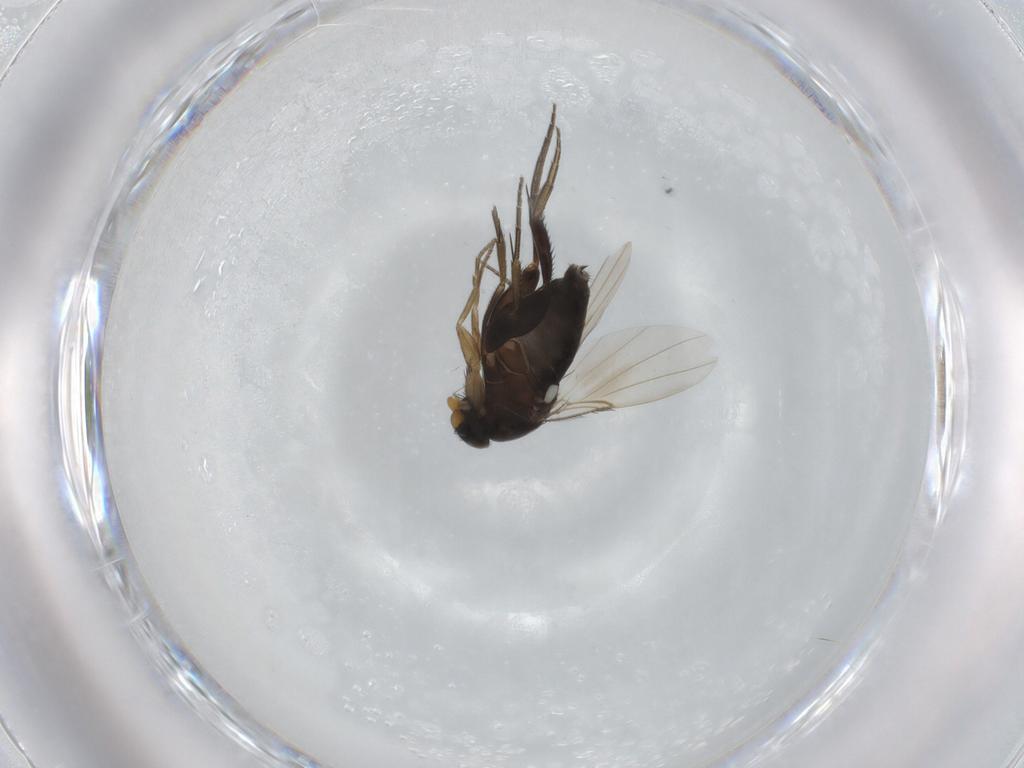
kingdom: Animalia
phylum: Arthropoda
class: Insecta
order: Diptera
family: Phoridae
